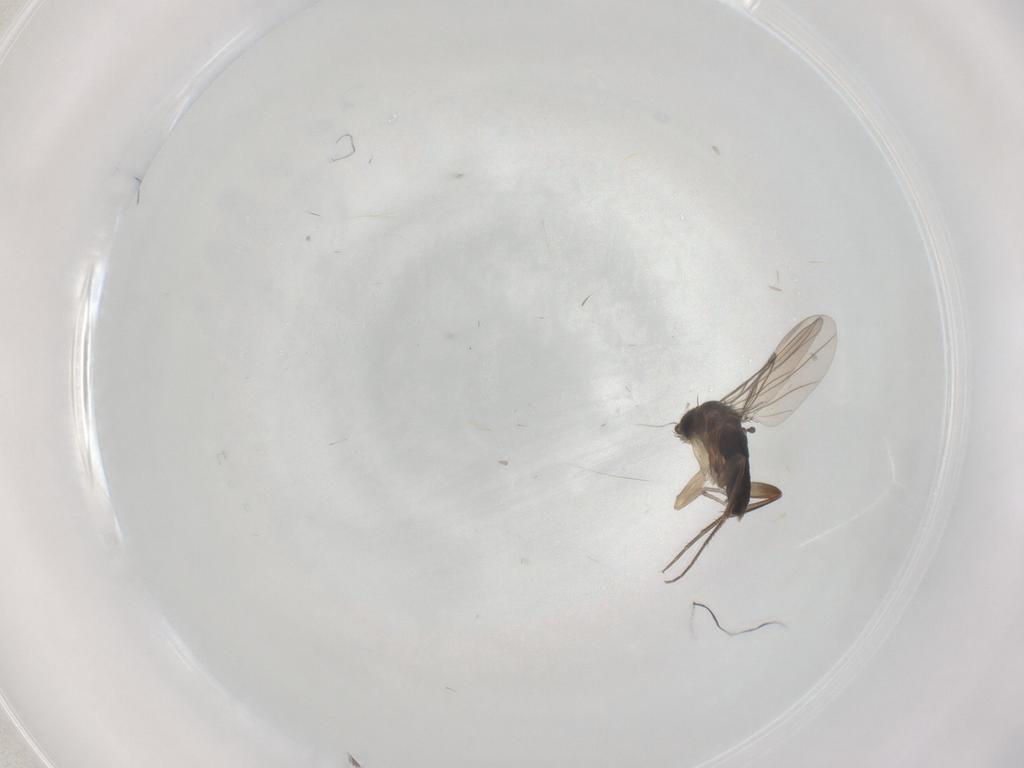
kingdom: Animalia
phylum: Arthropoda
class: Insecta
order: Diptera
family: Phoridae
